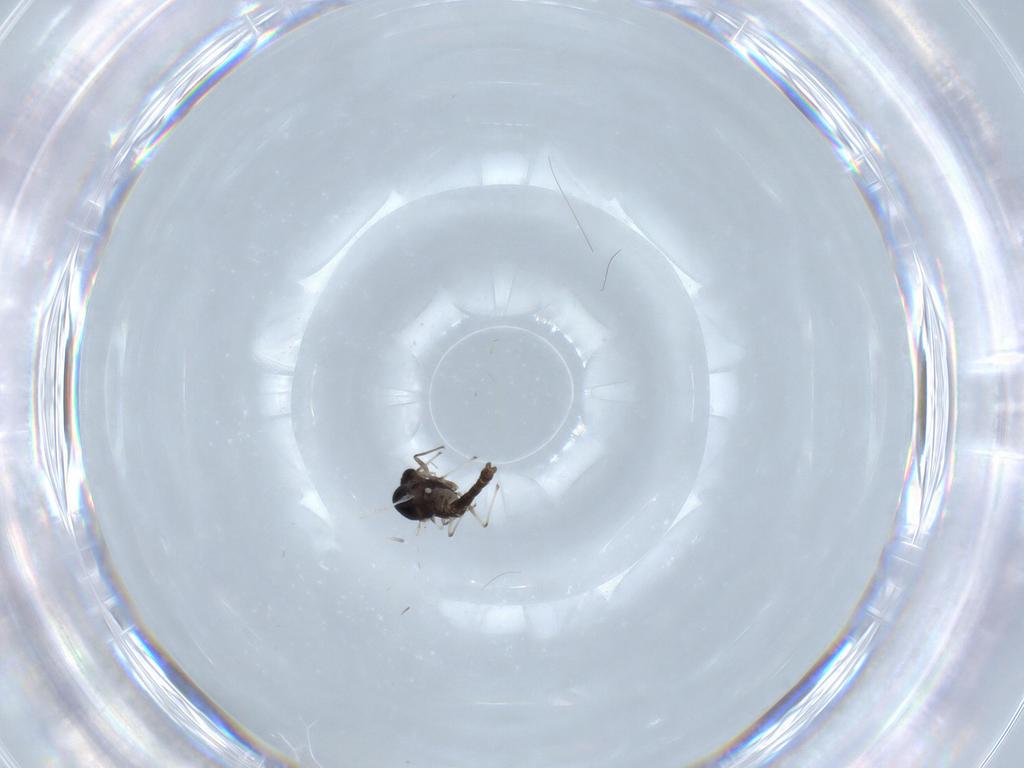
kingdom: Animalia
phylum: Arthropoda
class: Insecta
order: Diptera
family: Chironomidae
